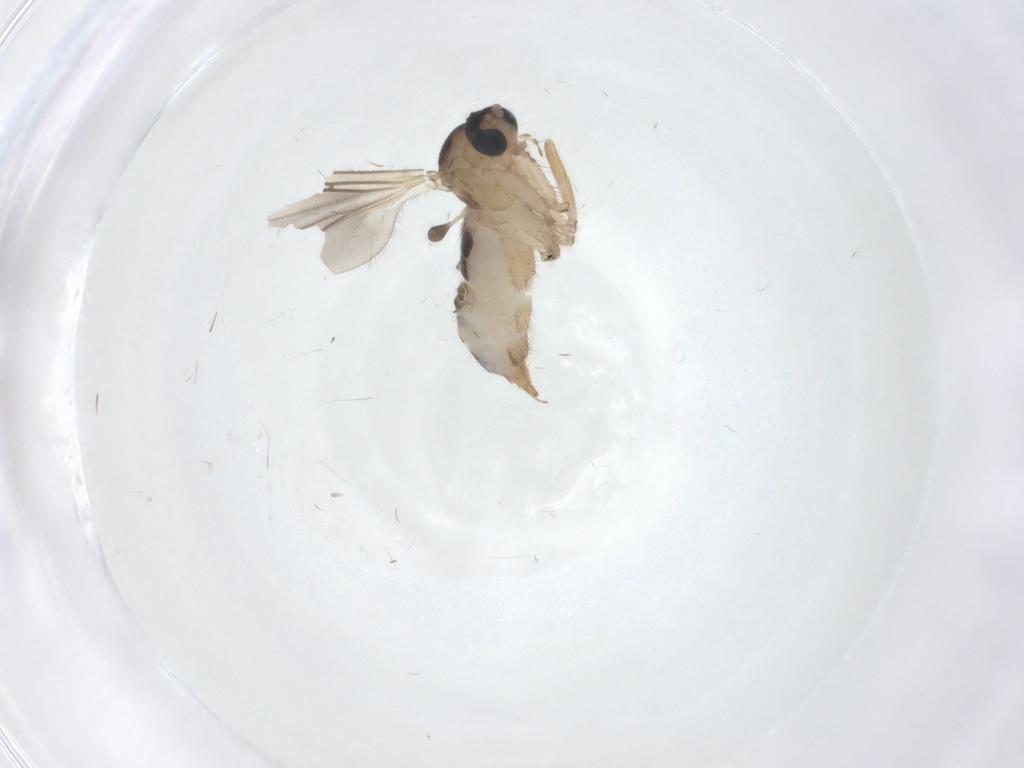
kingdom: Animalia
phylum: Arthropoda
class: Insecta
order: Diptera
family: Sciaridae
